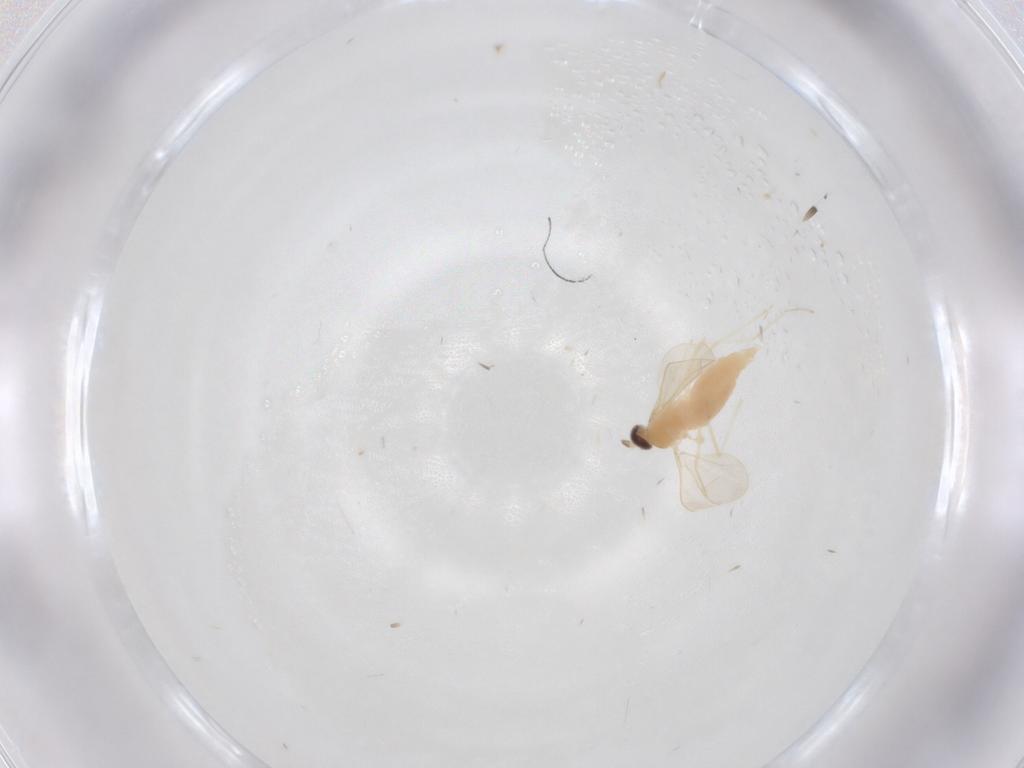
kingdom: Animalia
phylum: Arthropoda
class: Insecta
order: Diptera
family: Cecidomyiidae
